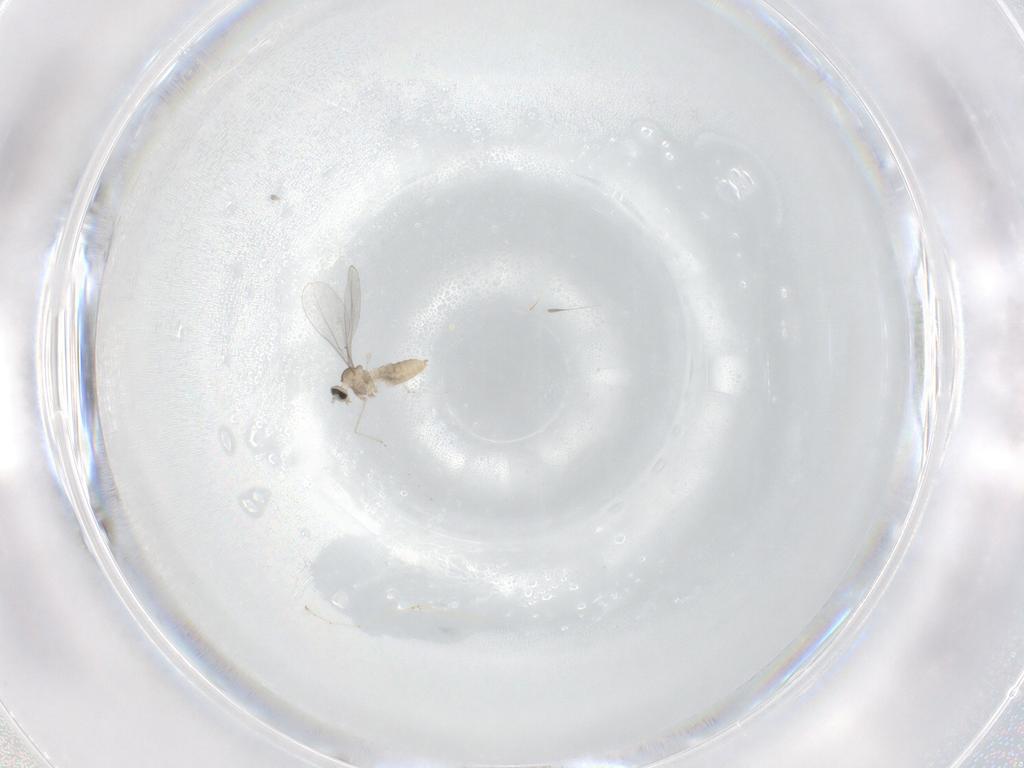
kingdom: Animalia
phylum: Arthropoda
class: Insecta
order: Diptera
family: Cecidomyiidae
